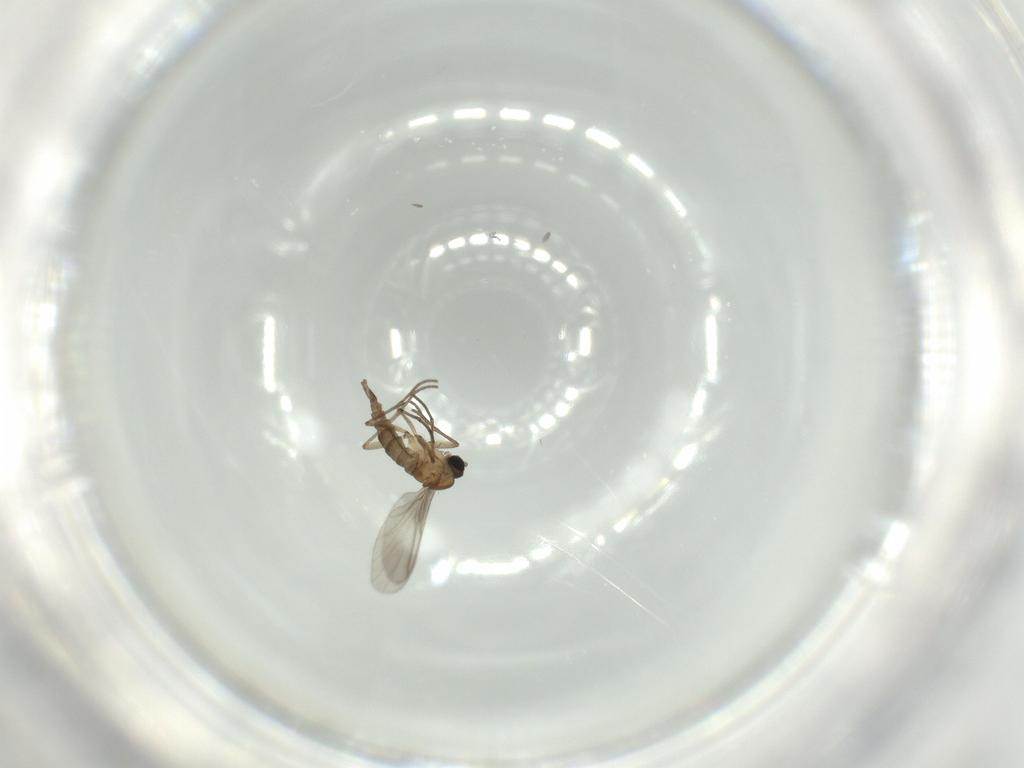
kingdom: Animalia
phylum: Arthropoda
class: Insecta
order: Diptera
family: Sciaridae
